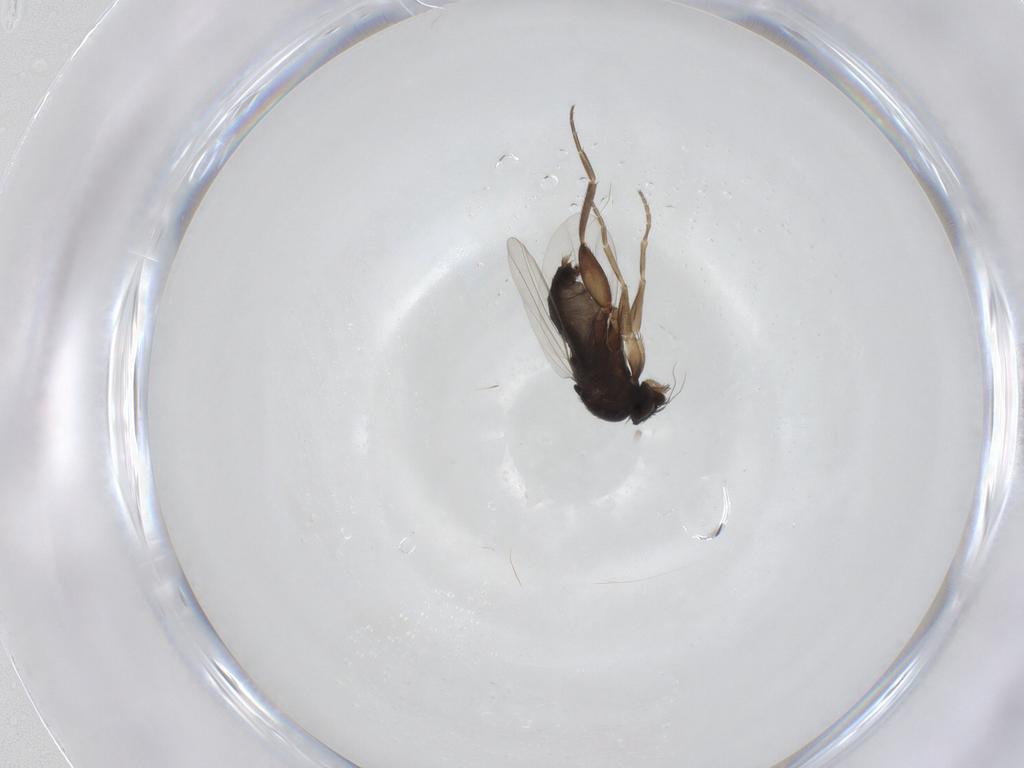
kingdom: Animalia
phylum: Arthropoda
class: Insecta
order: Diptera
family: Phoridae
